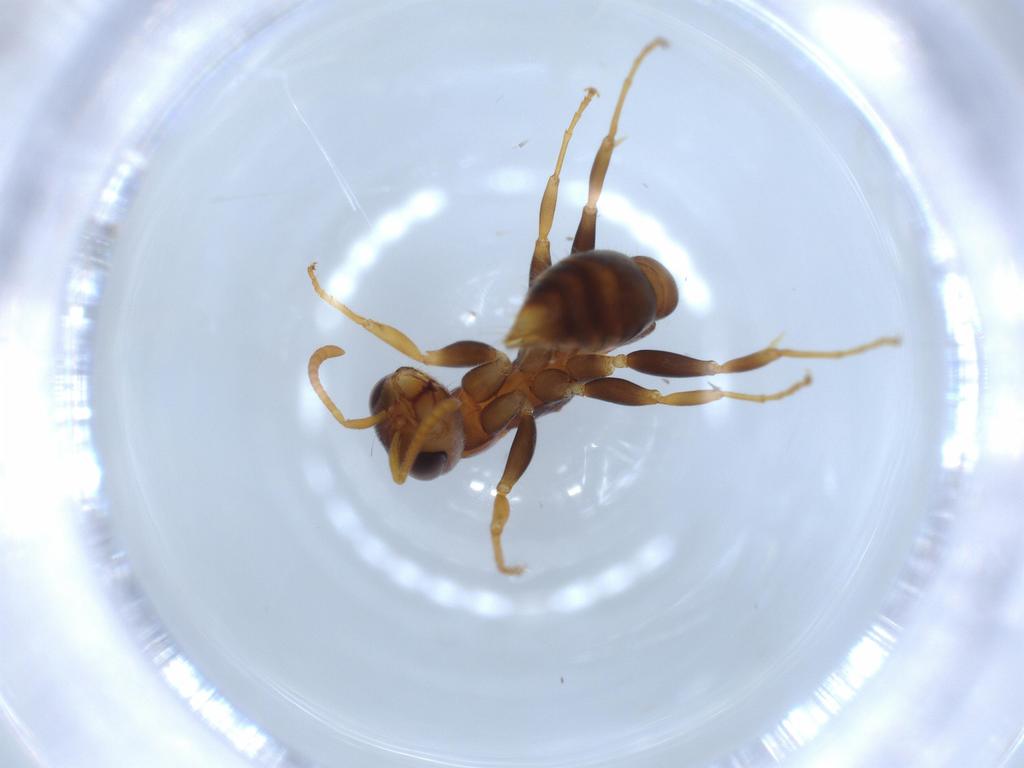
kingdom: Animalia
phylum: Arthropoda
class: Insecta
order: Hymenoptera
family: Formicidae
